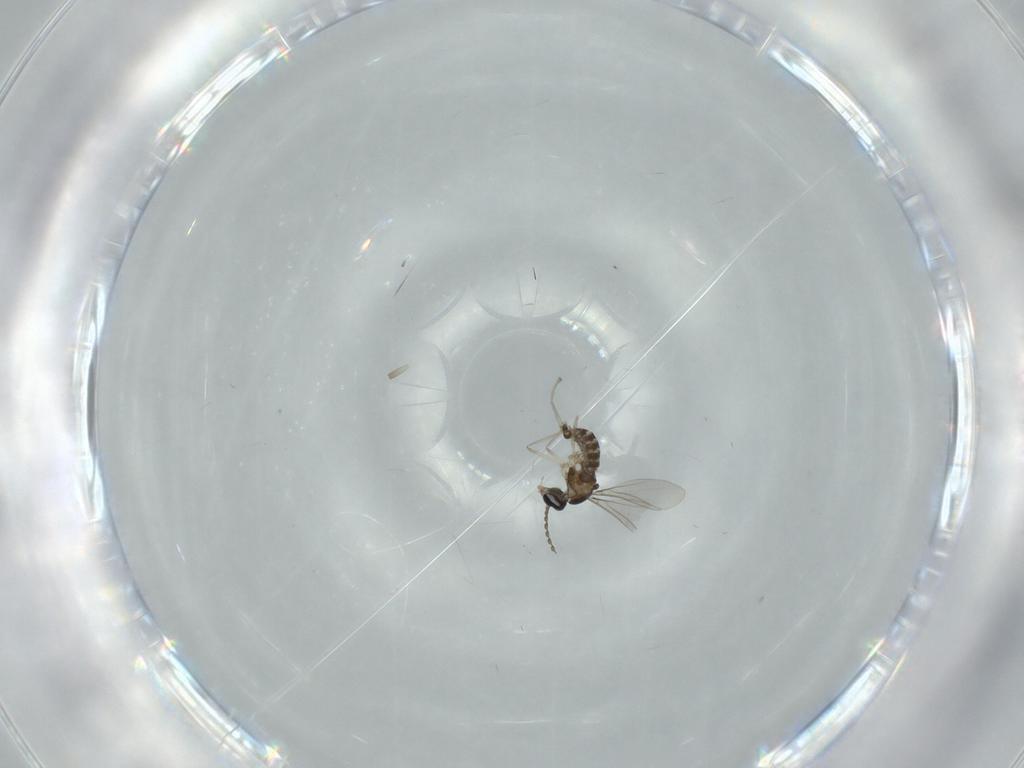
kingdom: Animalia
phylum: Arthropoda
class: Insecta
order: Diptera
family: Cecidomyiidae
